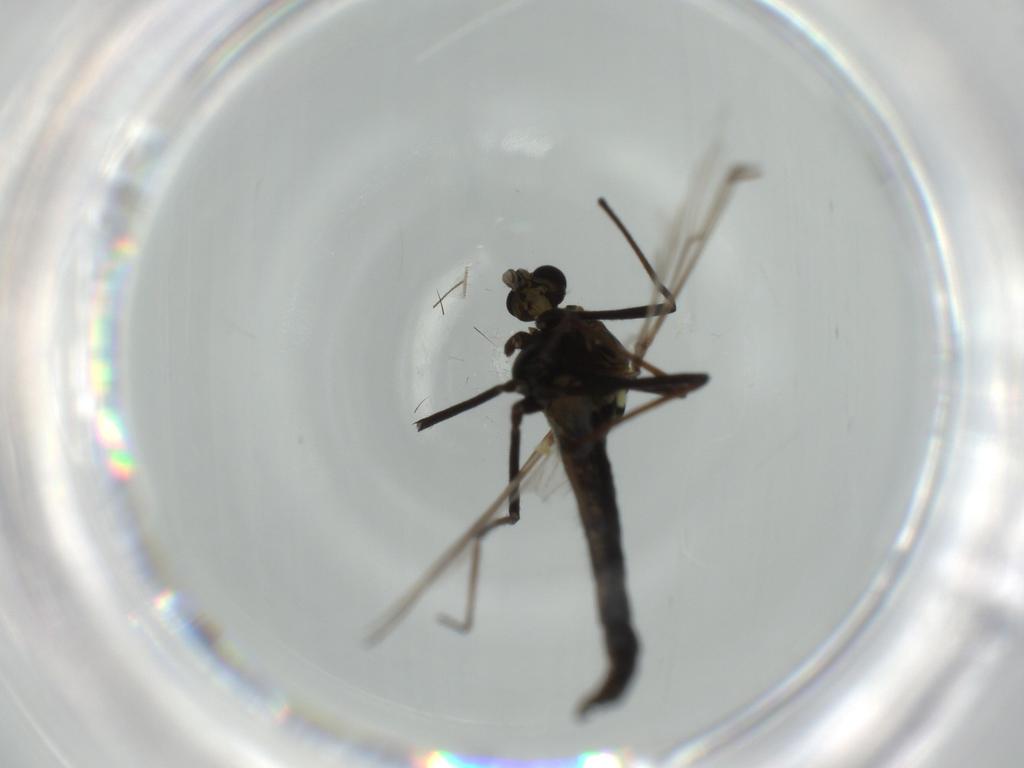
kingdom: Animalia
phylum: Arthropoda
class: Insecta
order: Diptera
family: Chironomidae
